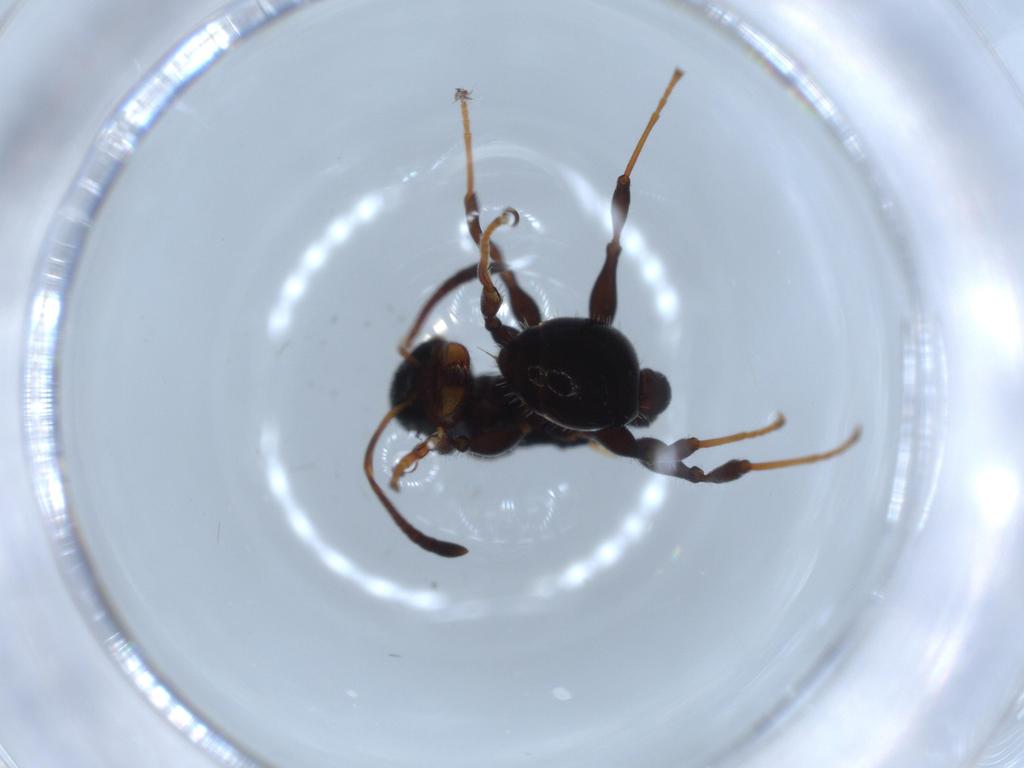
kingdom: Animalia
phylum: Arthropoda
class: Insecta
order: Hymenoptera
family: Formicidae
